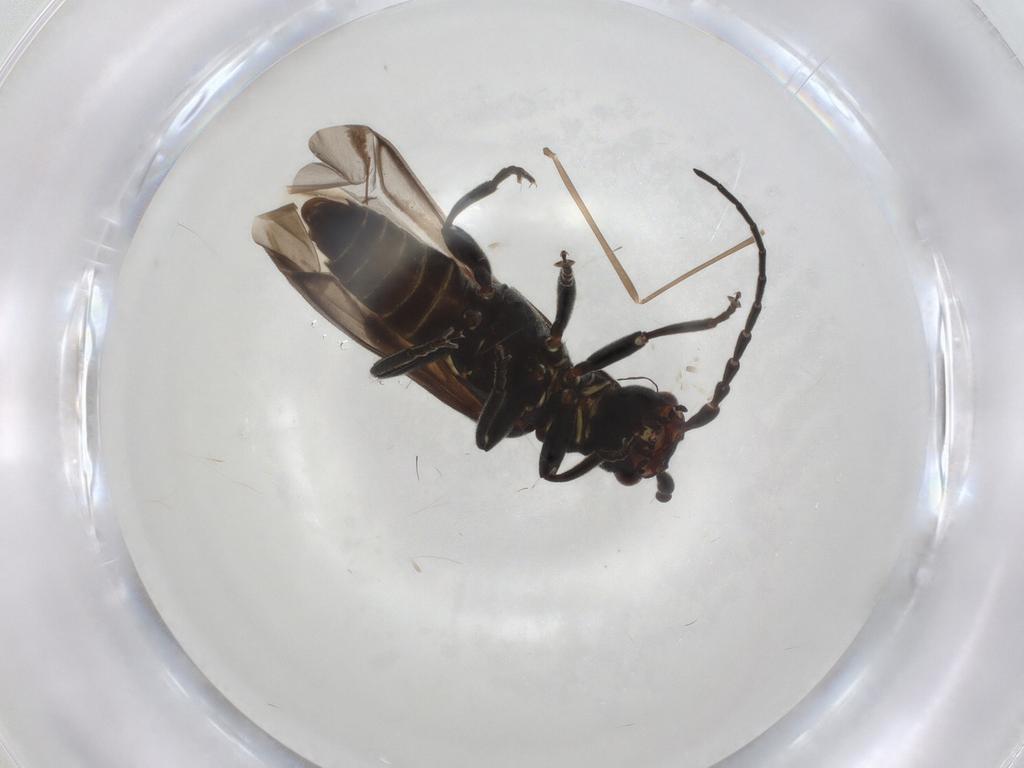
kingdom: Animalia
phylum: Arthropoda
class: Insecta
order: Coleoptera
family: Cantharidae
